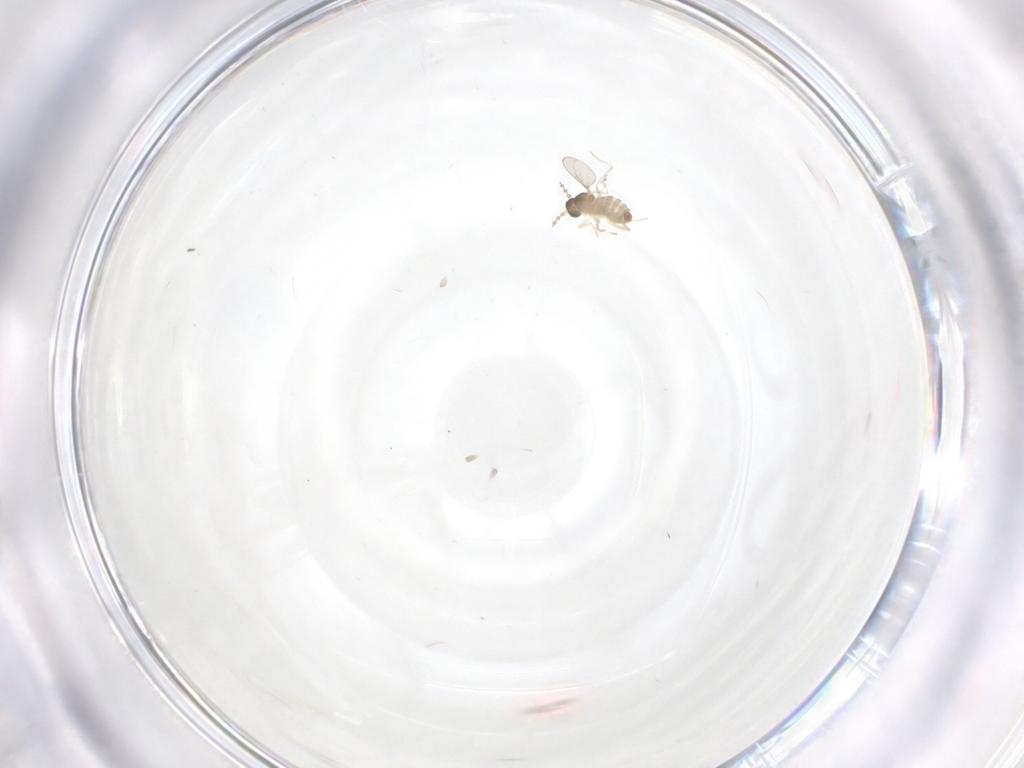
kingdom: Animalia
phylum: Arthropoda
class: Insecta
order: Diptera
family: Cecidomyiidae
